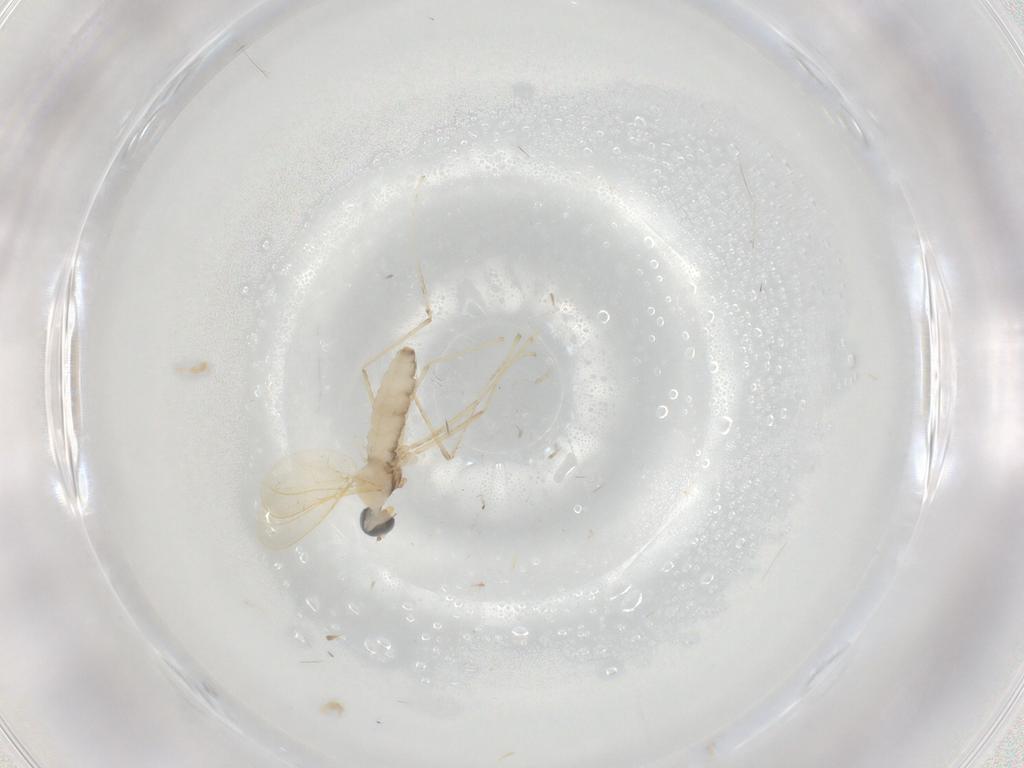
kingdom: Animalia
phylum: Arthropoda
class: Insecta
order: Diptera
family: Cecidomyiidae
